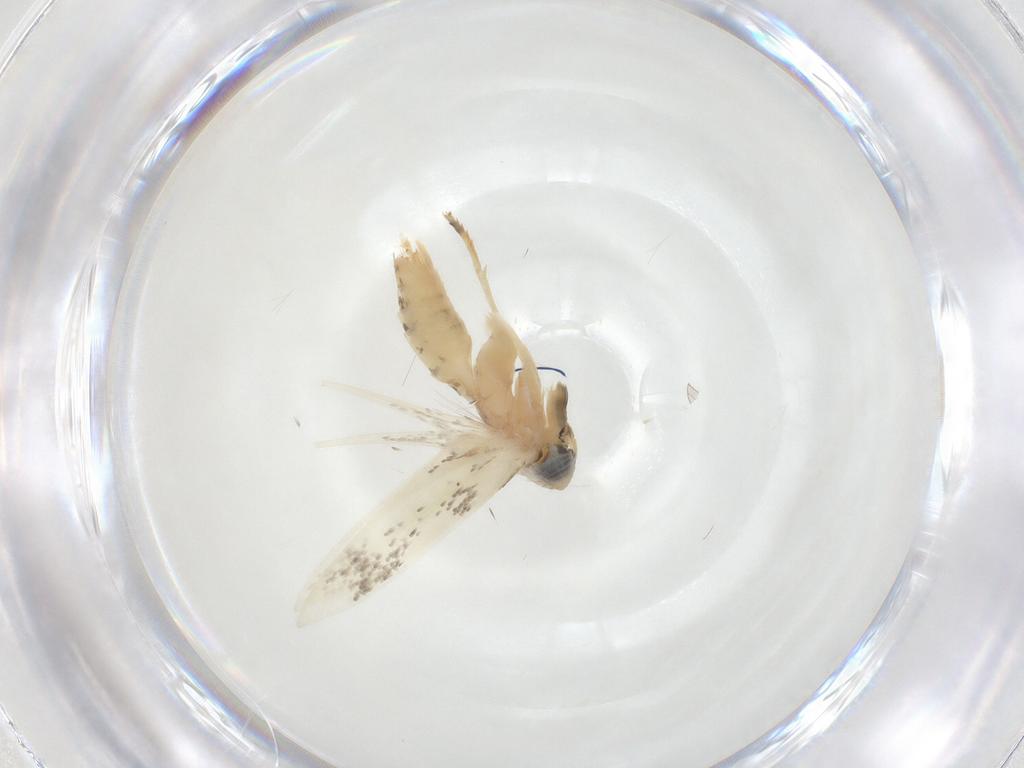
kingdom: Animalia
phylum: Arthropoda
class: Insecta
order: Lepidoptera
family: Opostegidae
